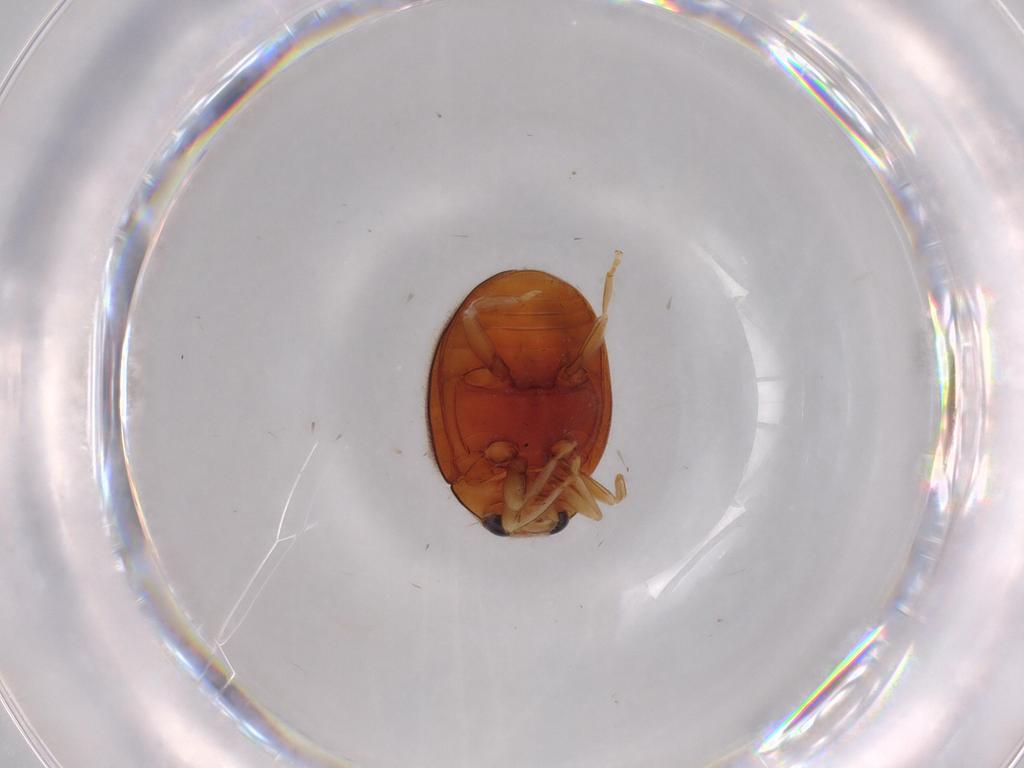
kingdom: Animalia
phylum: Arthropoda
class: Insecta
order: Coleoptera
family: Coccinellidae
